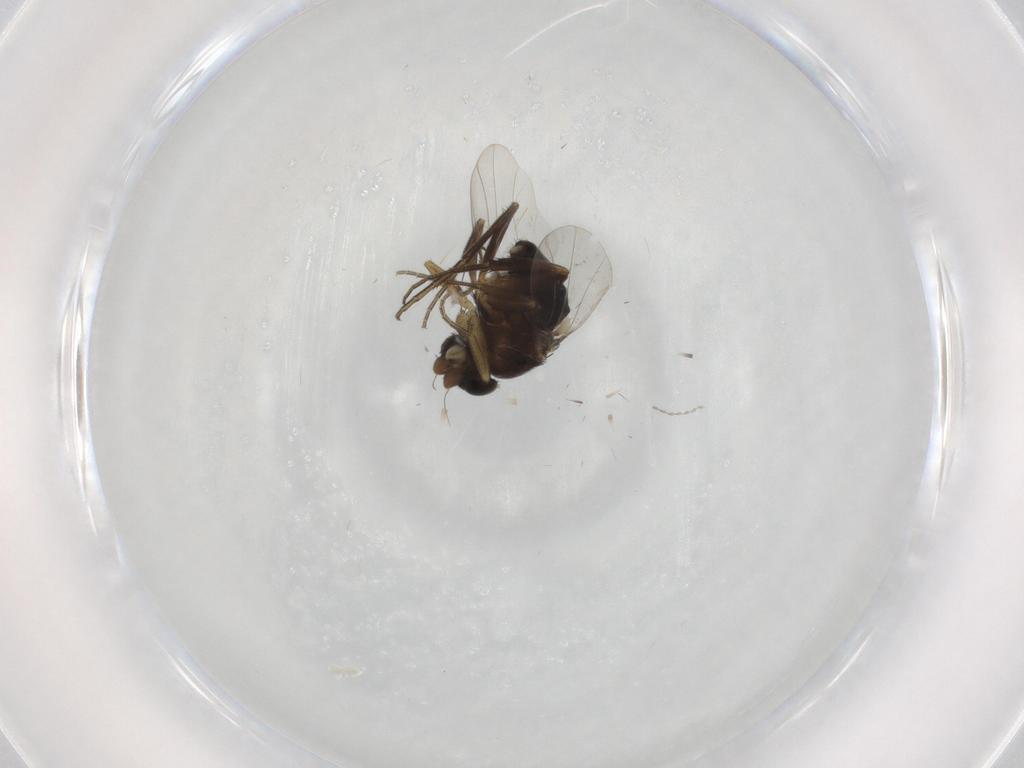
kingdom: Animalia
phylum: Arthropoda
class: Insecta
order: Diptera
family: Phoridae
